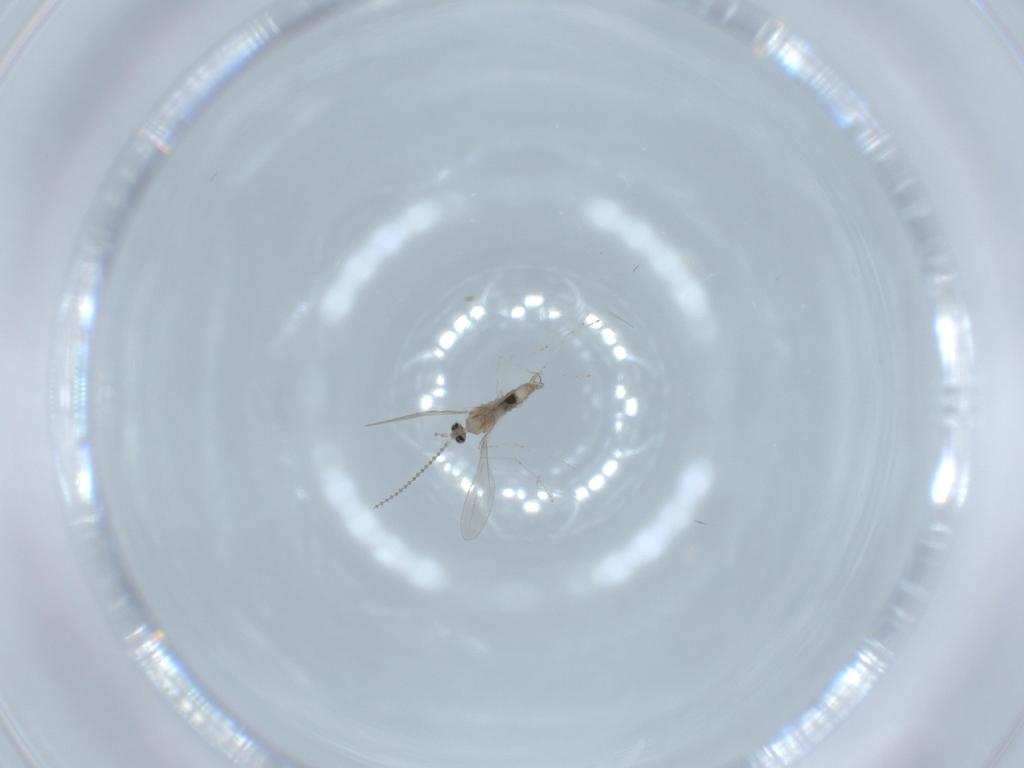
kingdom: Animalia
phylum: Arthropoda
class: Insecta
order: Diptera
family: Cecidomyiidae
